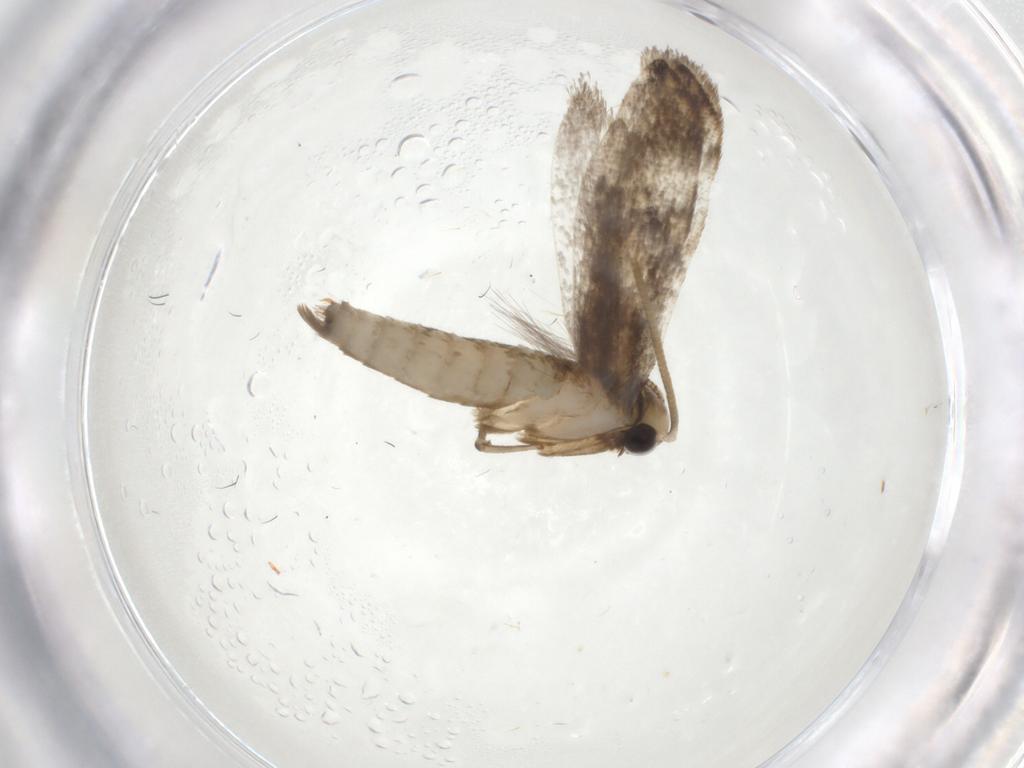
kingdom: Animalia
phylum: Arthropoda
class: Insecta
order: Lepidoptera
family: Tineidae
